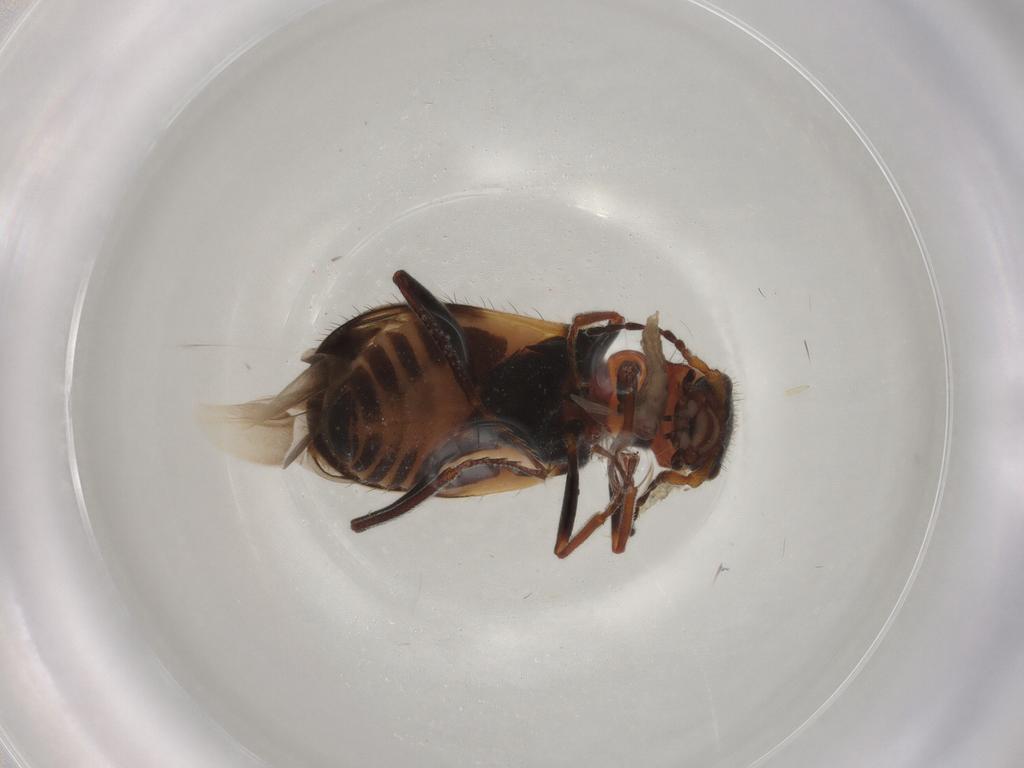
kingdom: Animalia
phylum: Arthropoda
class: Insecta
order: Coleoptera
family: Melyridae
